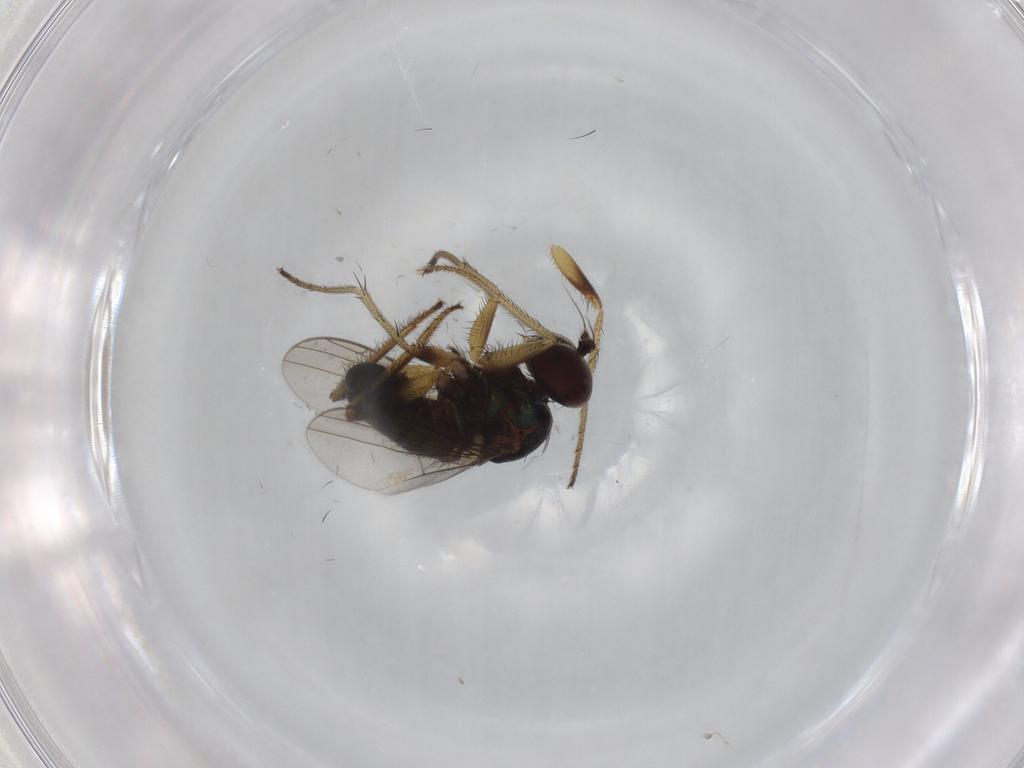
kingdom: Animalia
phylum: Arthropoda
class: Insecta
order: Diptera
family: Dolichopodidae
